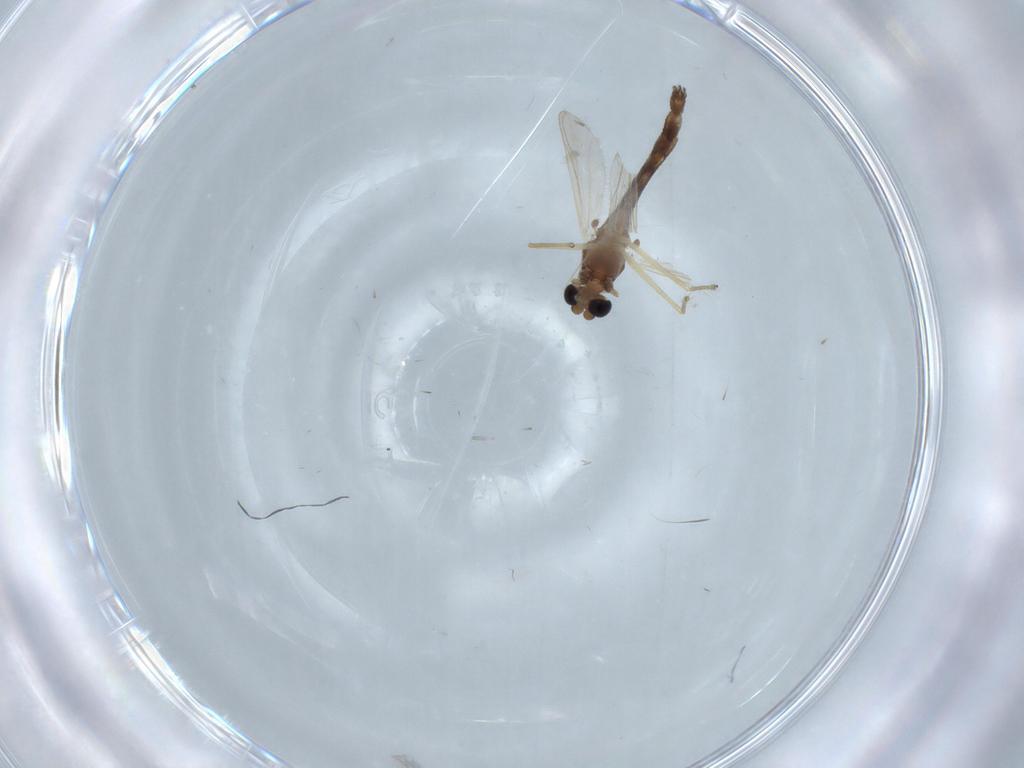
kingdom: Animalia
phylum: Arthropoda
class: Insecta
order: Diptera
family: Chironomidae
